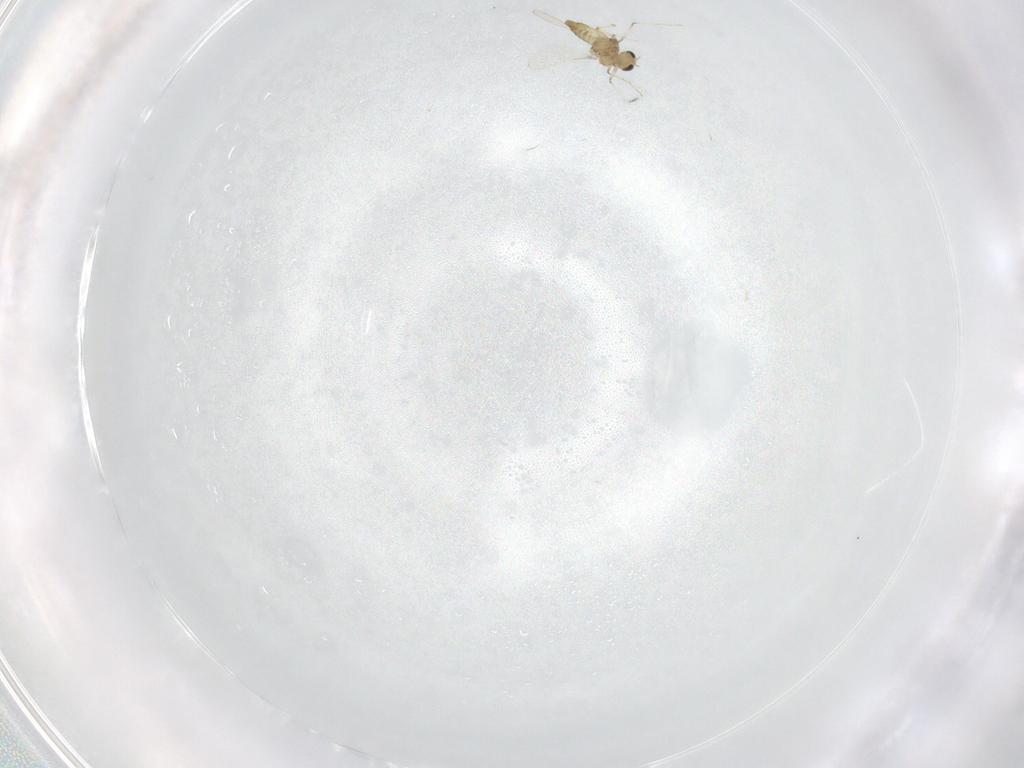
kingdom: Animalia
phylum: Arthropoda
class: Insecta
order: Diptera
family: Chironomidae
